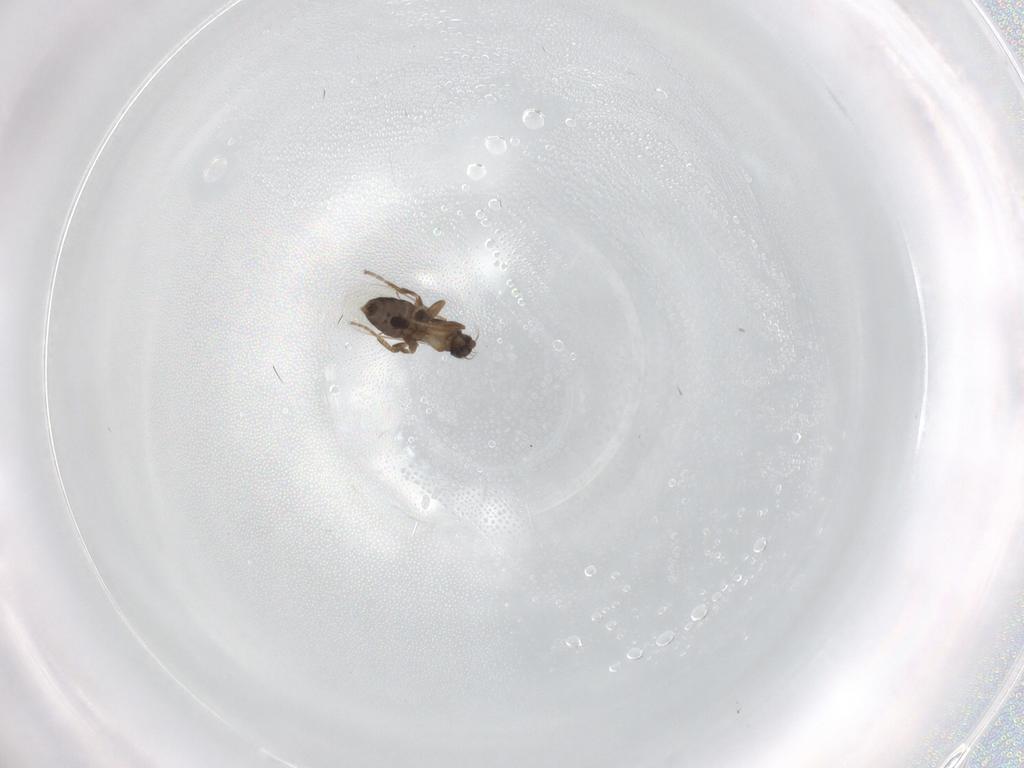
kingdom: Animalia
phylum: Arthropoda
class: Insecta
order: Diptera
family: Phoridae
